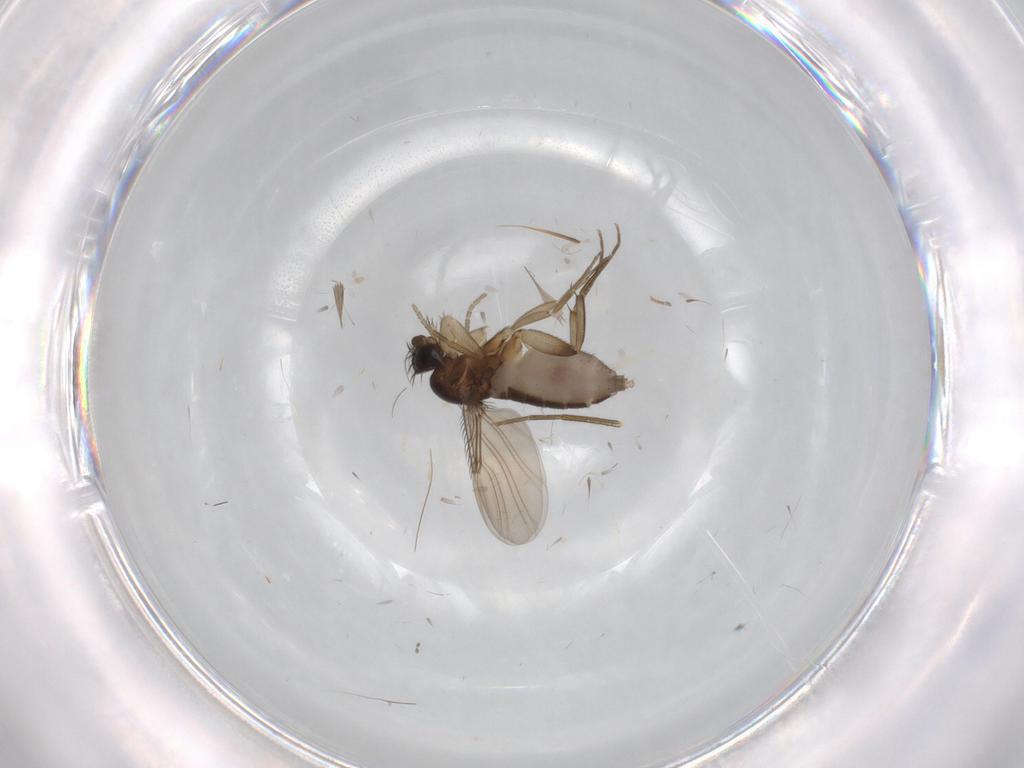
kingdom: Animalia
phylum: Arthropoda
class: Insecta
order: Diptera
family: Phoridae
